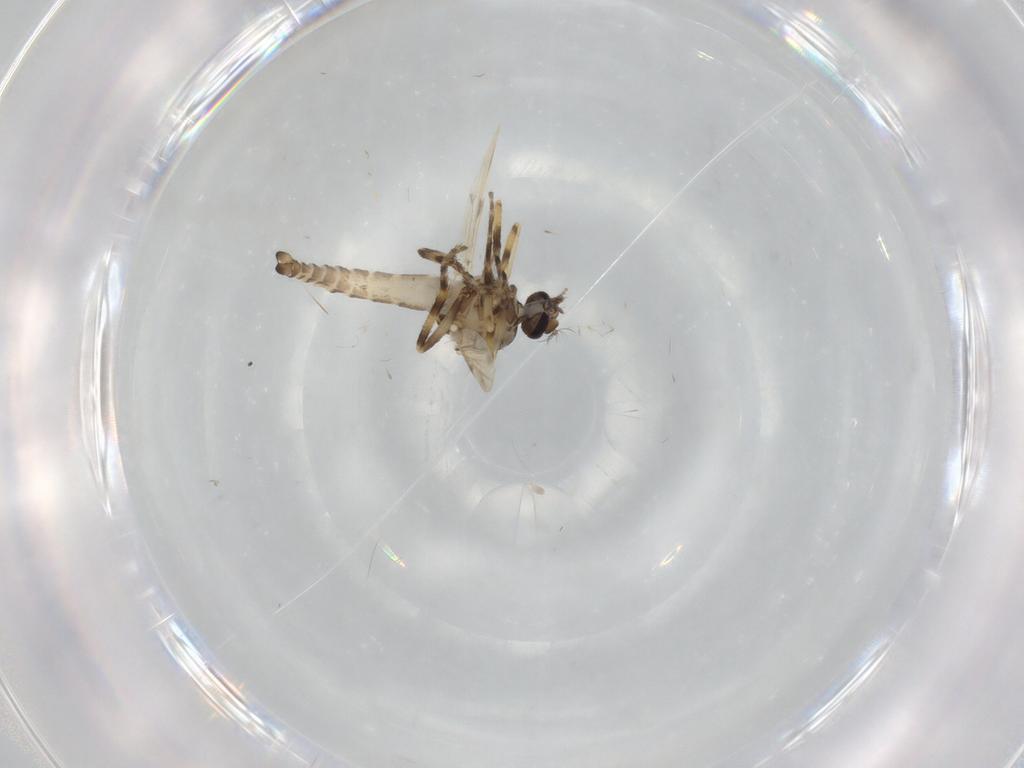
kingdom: Animalia
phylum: Arthropoda
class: Insecta
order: Diptera
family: Ceratopogonidae
